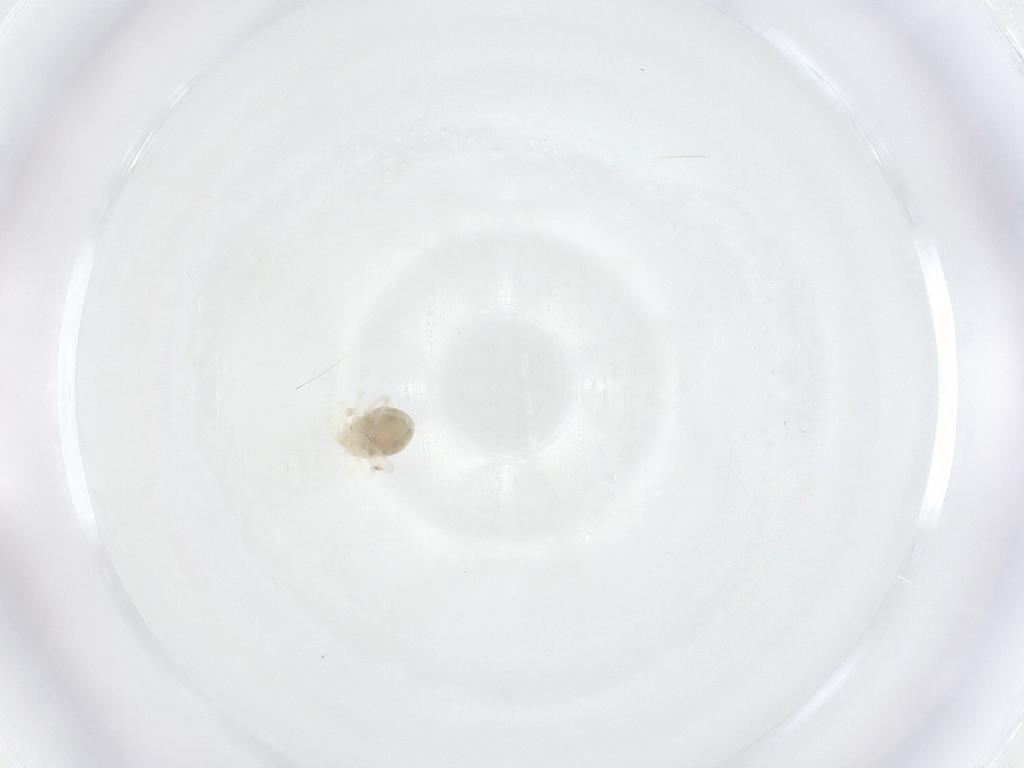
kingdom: Animalia
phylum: Arthropoda
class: Arachnida
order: Trombidiformes
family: Anystidae
